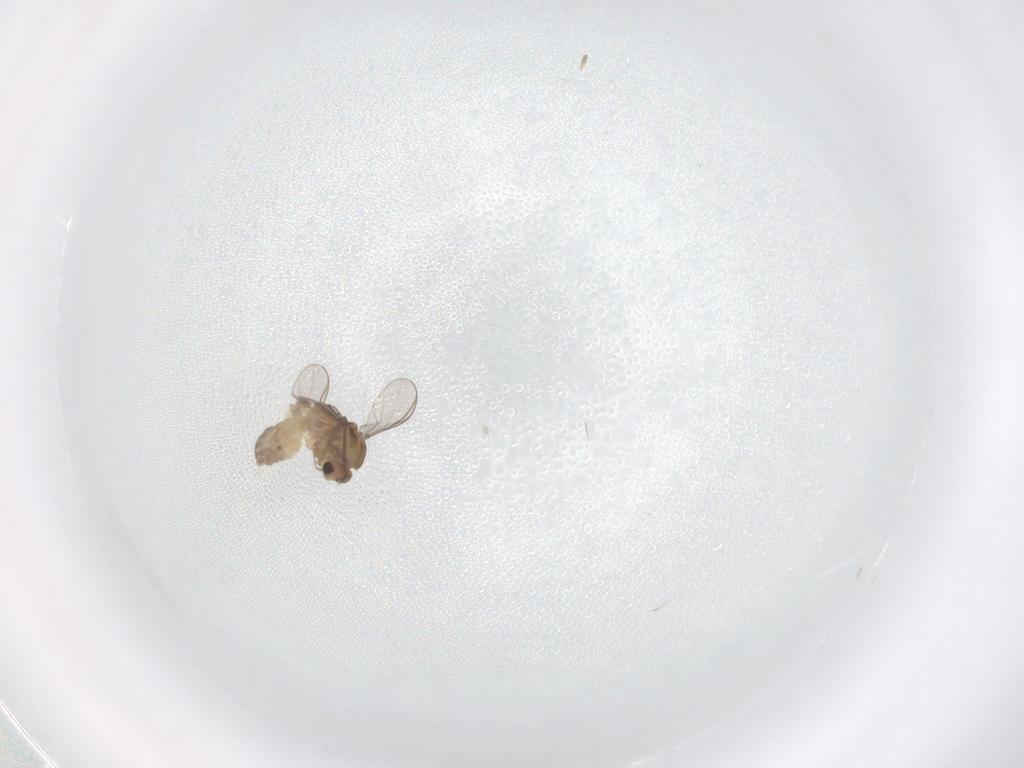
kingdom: Animalia
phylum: Arthropoda
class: Insecta
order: Diptera
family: Chironomidae
